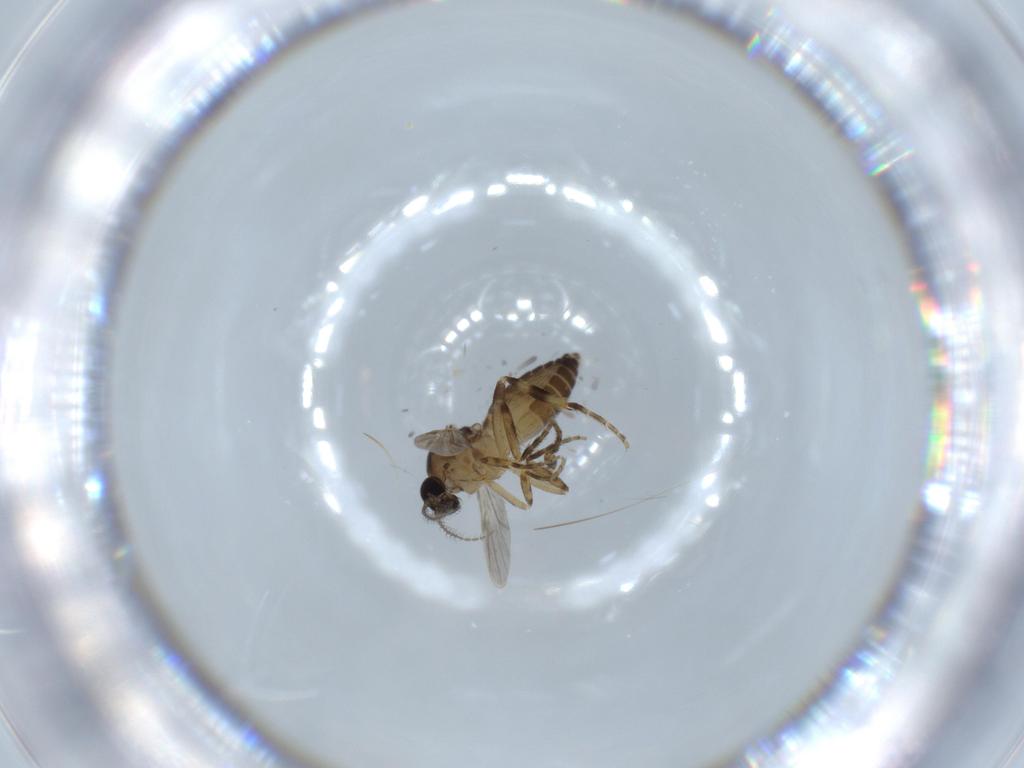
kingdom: Animalia
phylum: Arthropoda
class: Insecta
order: Diptera
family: Ceratopogonidae
